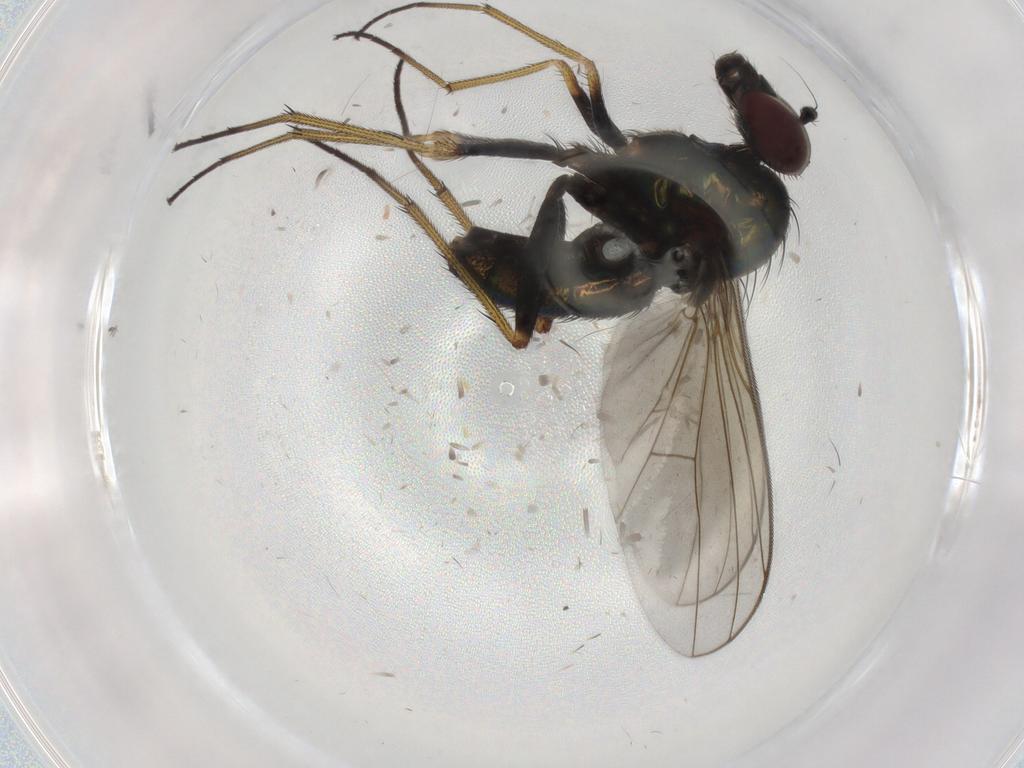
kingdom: Animalia
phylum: Arthropoda
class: Insecta
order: Diptera
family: Dolichopodidae
